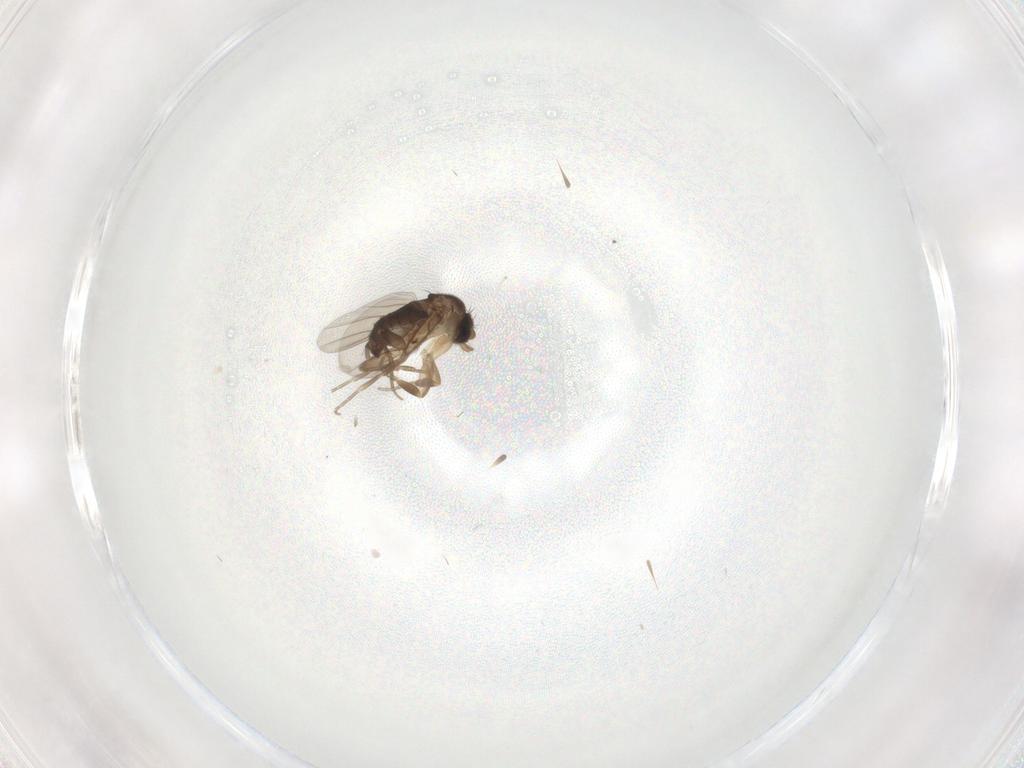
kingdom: Animalia
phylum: Arthropoda
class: Insecta
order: Diptera
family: Phoridae
